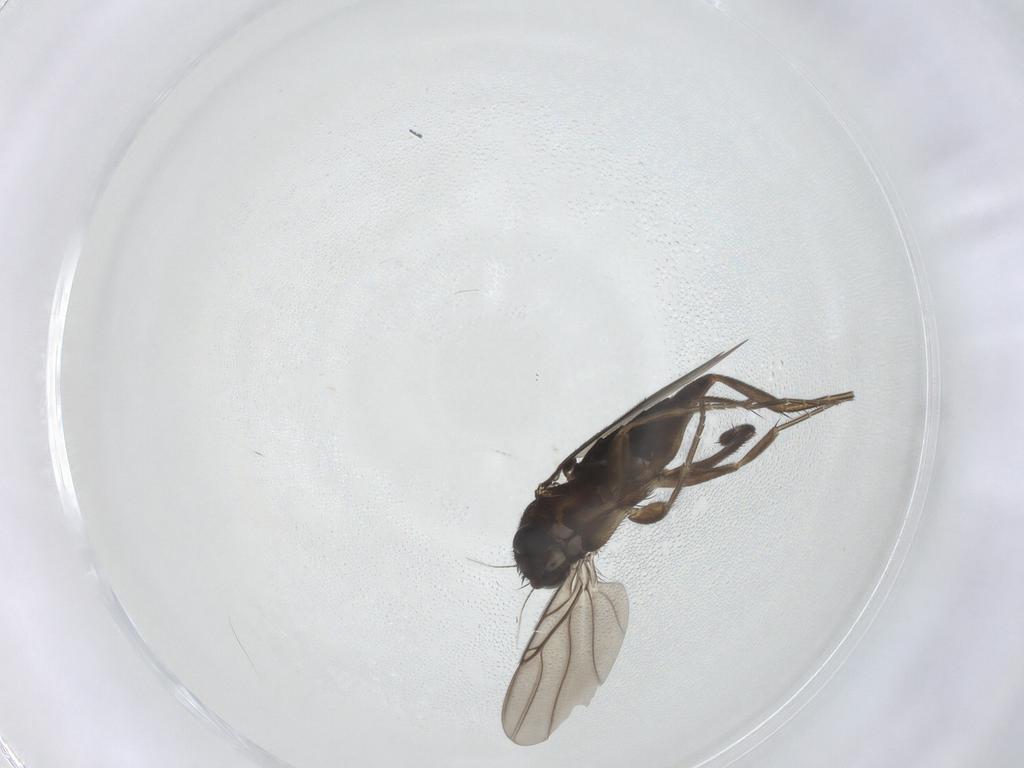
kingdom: Animalia
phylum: Arthropoda
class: Insecta
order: Diptera
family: Phoridae
